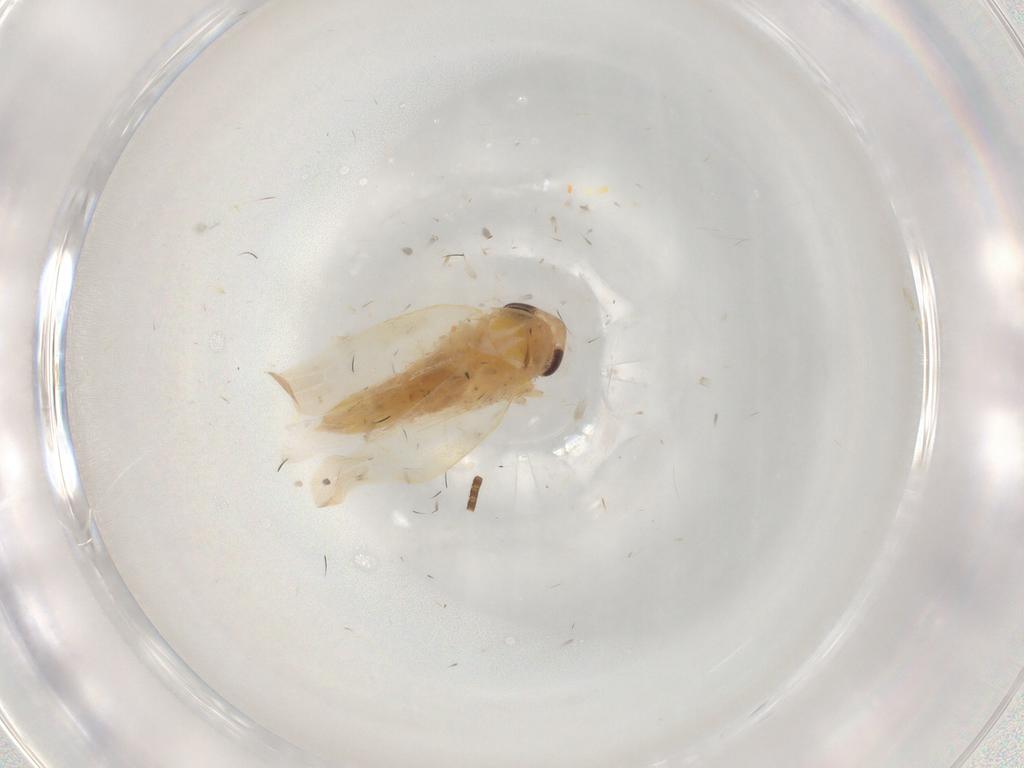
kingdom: Animalia
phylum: Arthropoda
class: Insecta
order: Hemiptera
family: Cicadellidae
